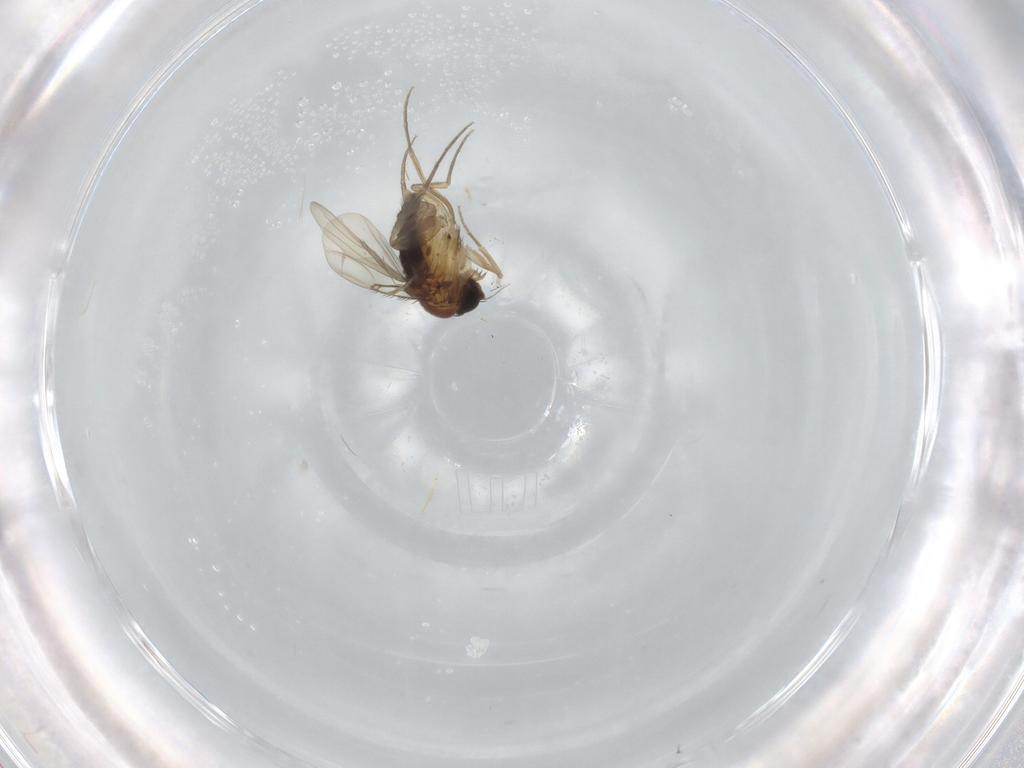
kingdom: Animalia
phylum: Arthropoda
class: Insecta
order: Diptera
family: Phoridae
